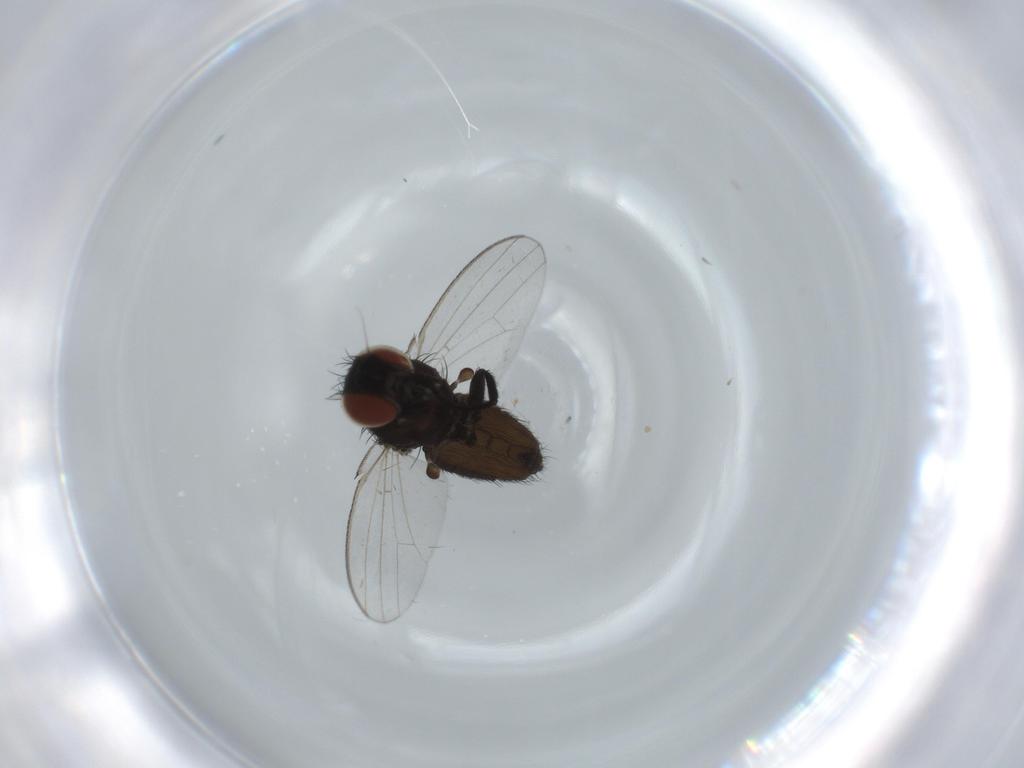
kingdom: Animalia
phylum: Arthropoda
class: Insecta
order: Diptera
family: Milichiidae
